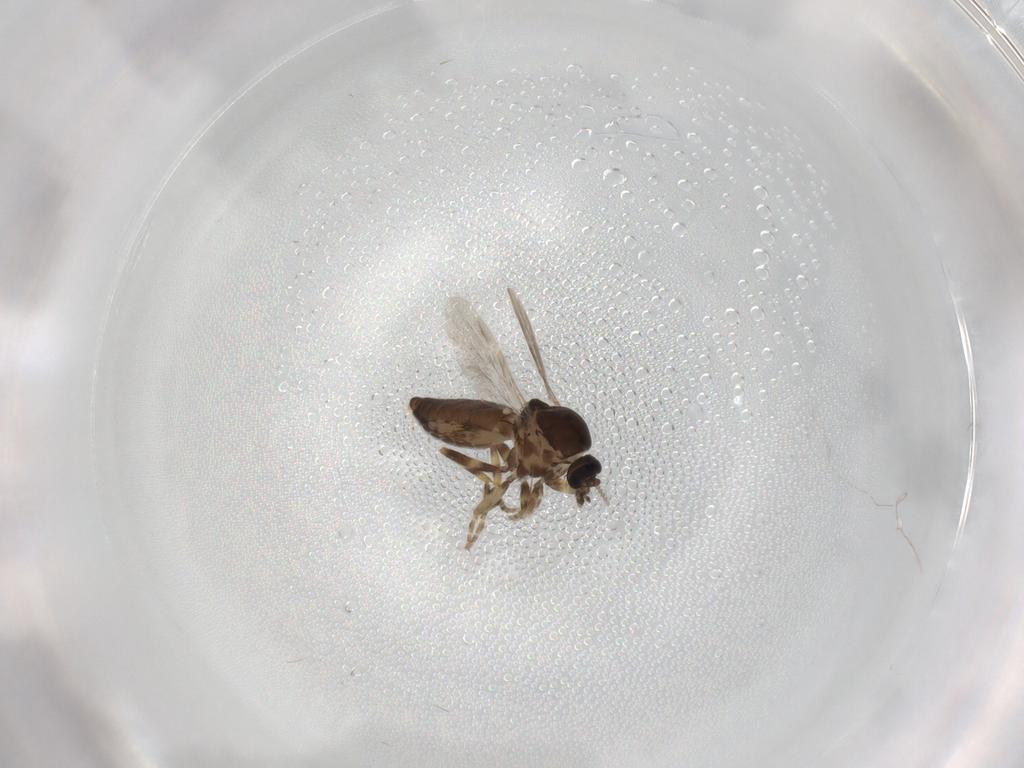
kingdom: Animalia
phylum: Arthropoda
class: Insecta
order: Diptera
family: Ceratopogonidae
